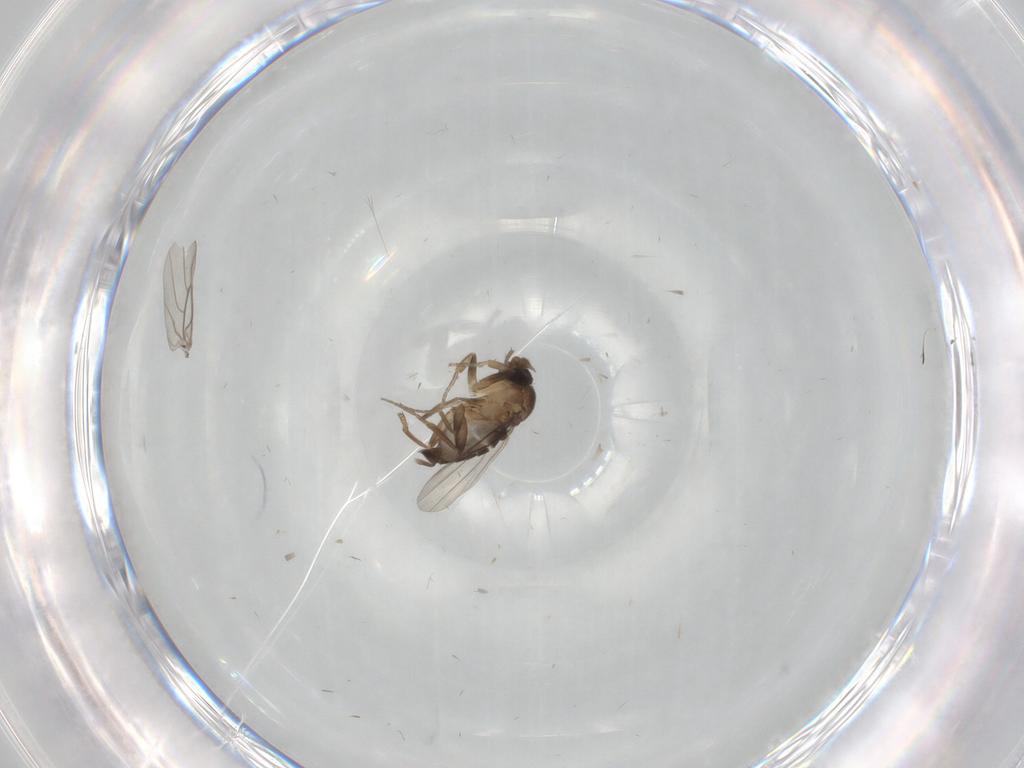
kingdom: Animalia
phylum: Arthropoda
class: Insecta
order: Diptera
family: Phoridae
